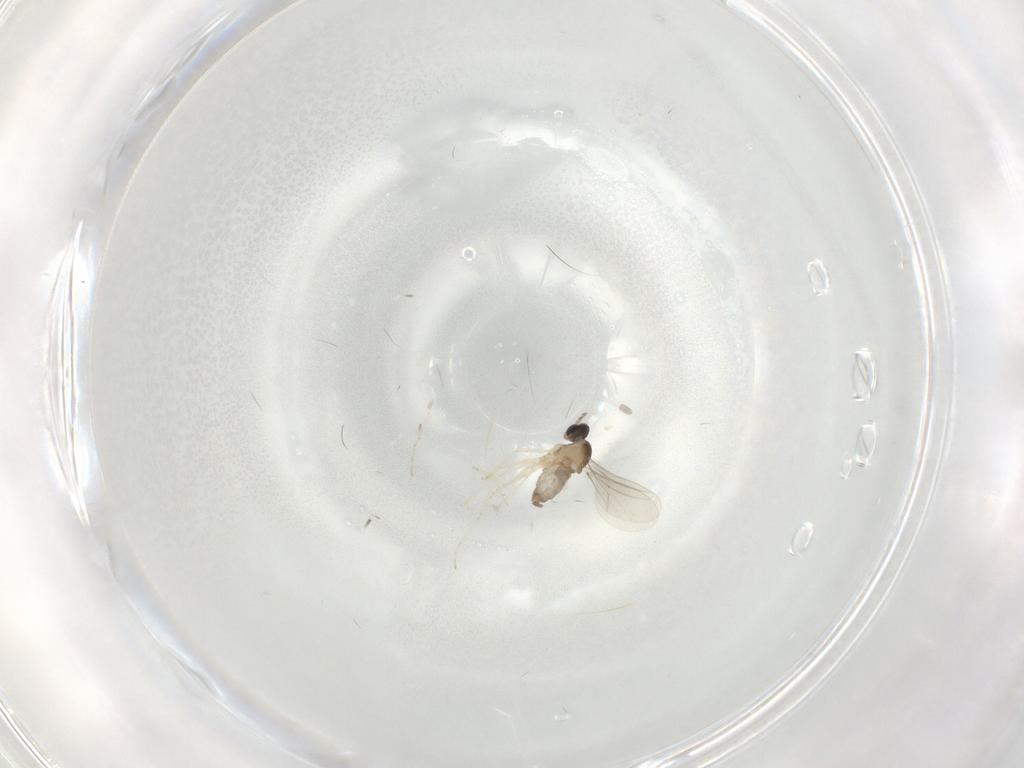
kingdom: Animalia
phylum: Arthropoda
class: Insecta
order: Diptera
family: Cecidomyiidae
